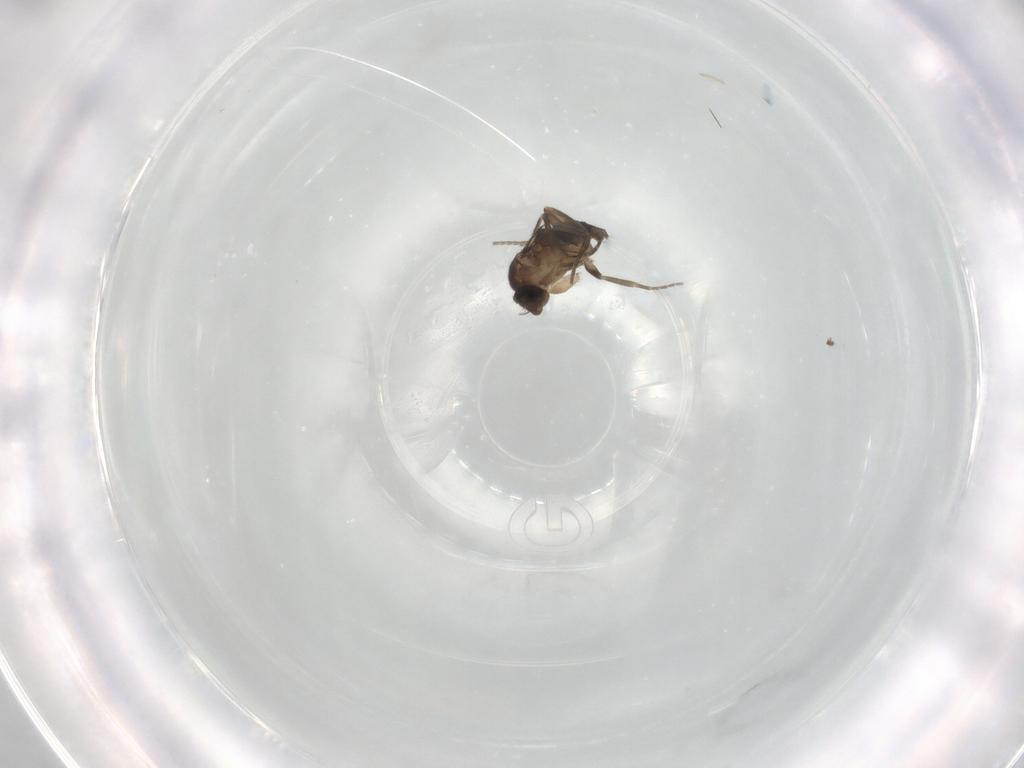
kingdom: Animalia
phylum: Arthropoda
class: Insecta
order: Diptera
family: Phoridae
